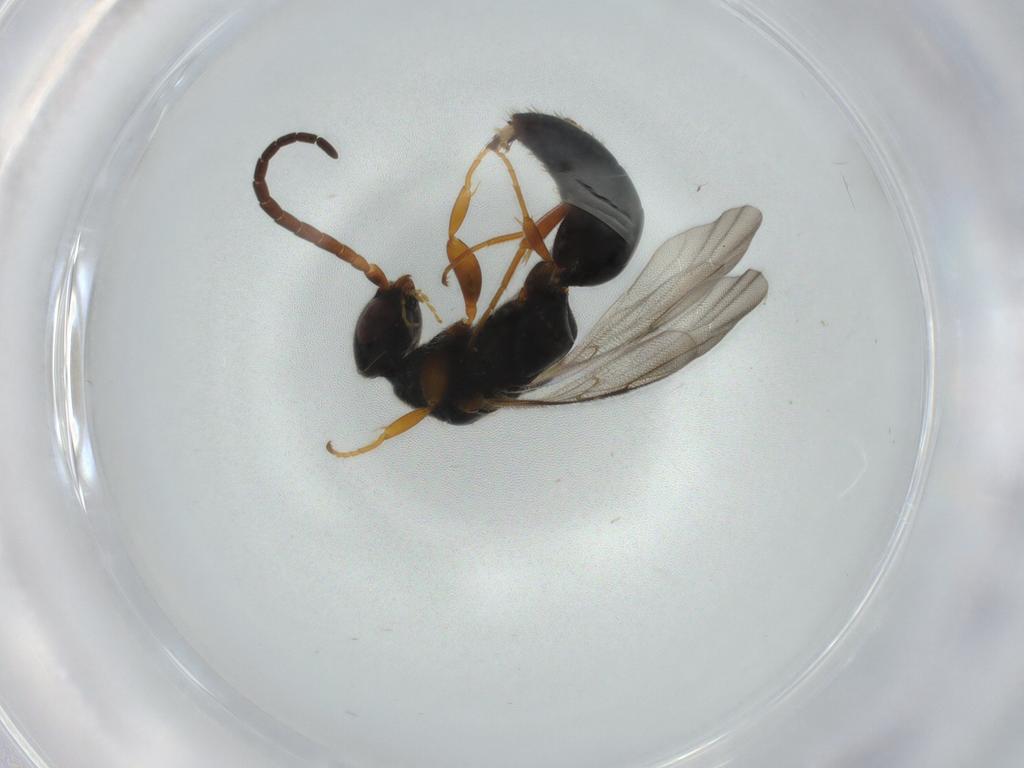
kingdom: Animalia
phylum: Arthropoda
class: Insecta
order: Hymenoptera
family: Bethylidae
